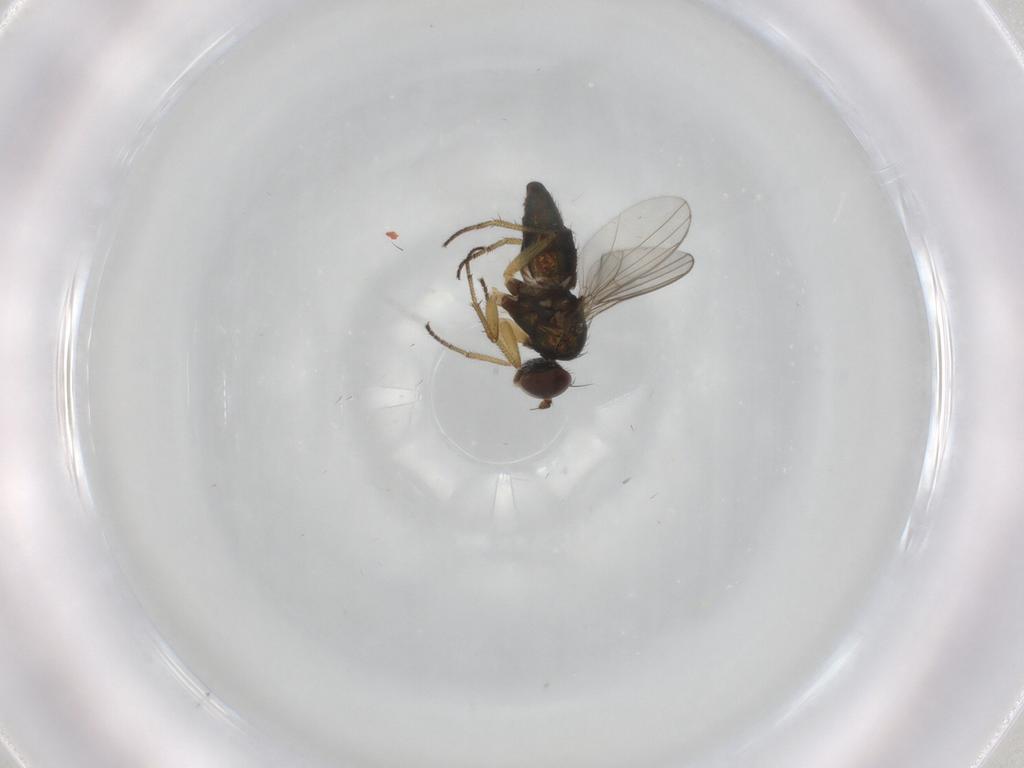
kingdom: Animalia
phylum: Arthropoda
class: Insecta
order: Diptera
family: Dolichopodidae
